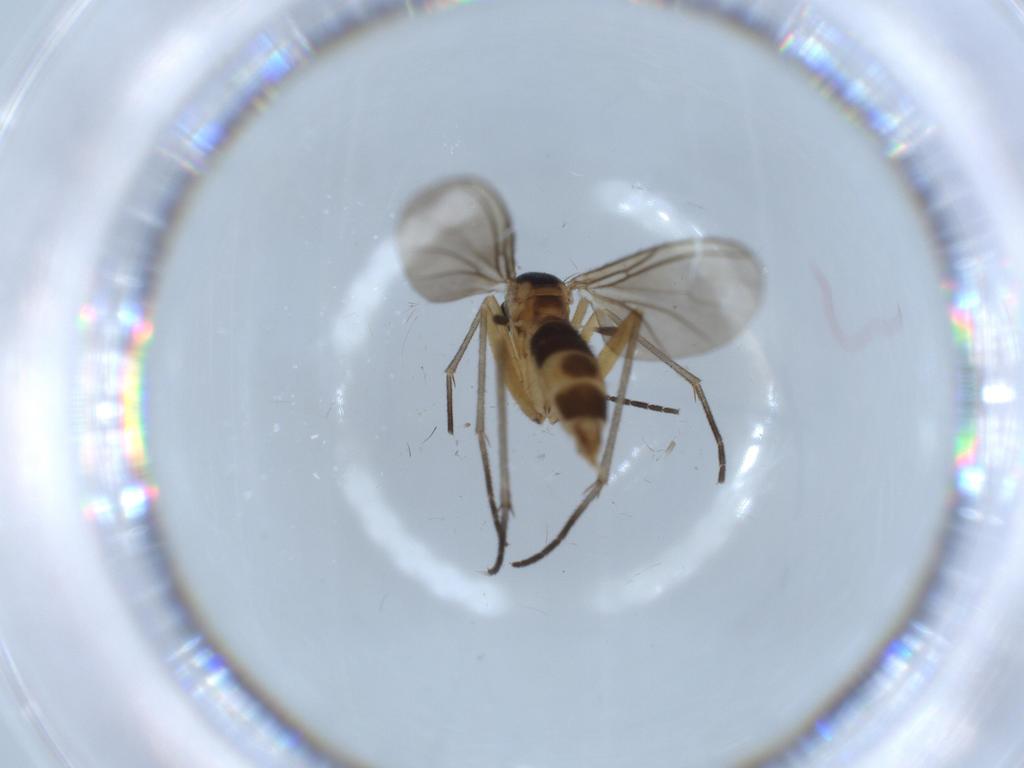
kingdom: Animalia
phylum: Arthropoda
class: Insecta
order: Diptera
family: Sciaridae
